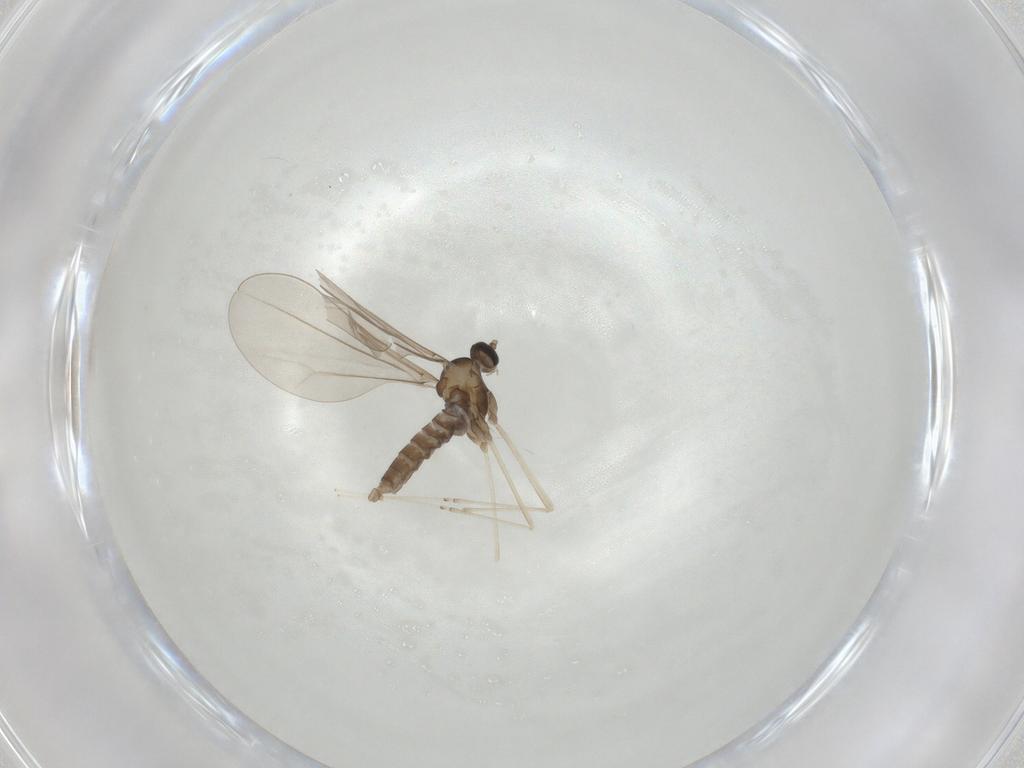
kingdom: Animalia
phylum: Arthropoda
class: Insecta
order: Diptera
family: Cecidomyiidae
